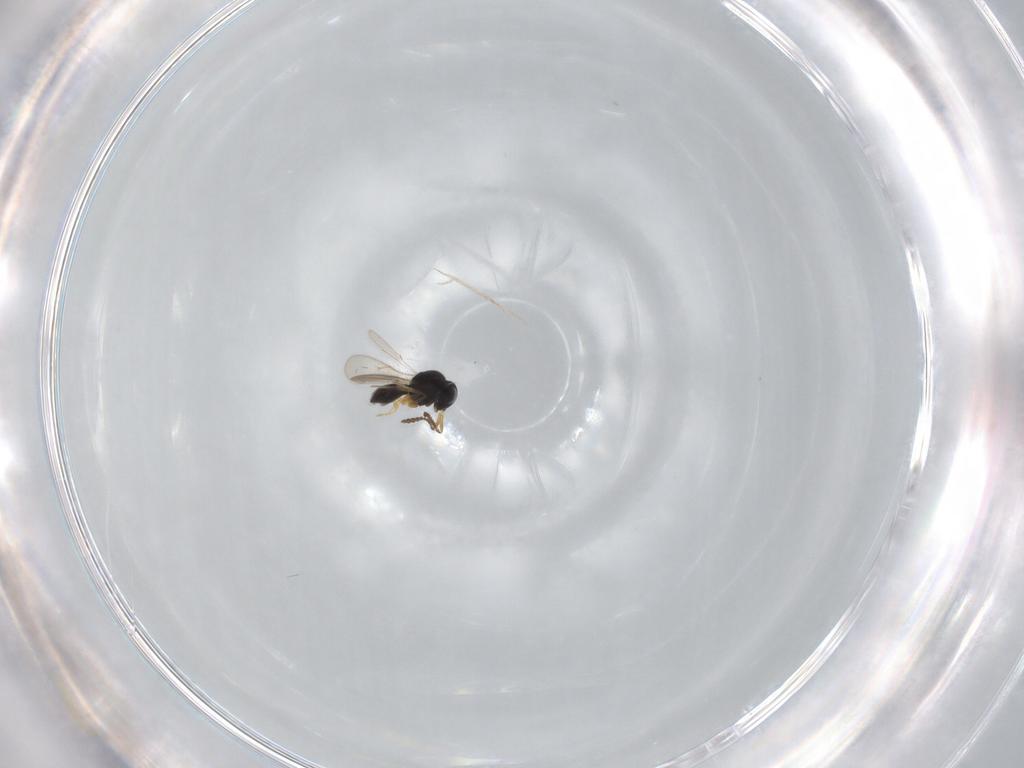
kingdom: Animalia
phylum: Arthropoda
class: Insecta
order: Hymenoptera
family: Scelionidae
